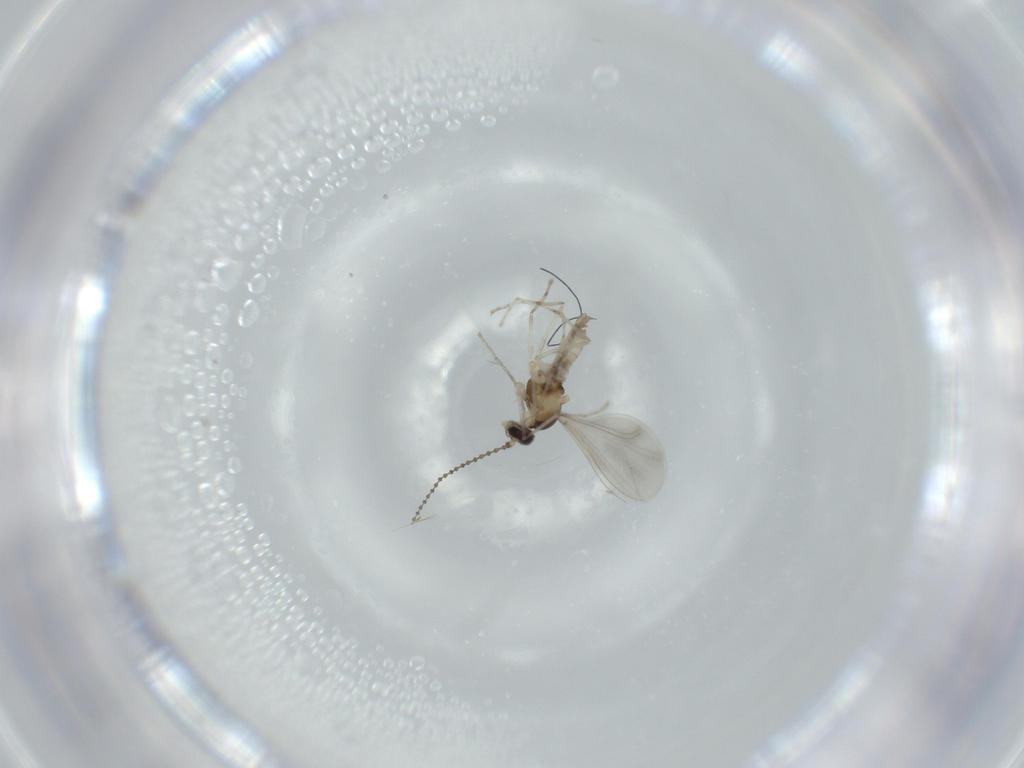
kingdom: Animalia
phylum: Arthropoda
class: Insecta
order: Diptera
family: Cecidomyiidae
